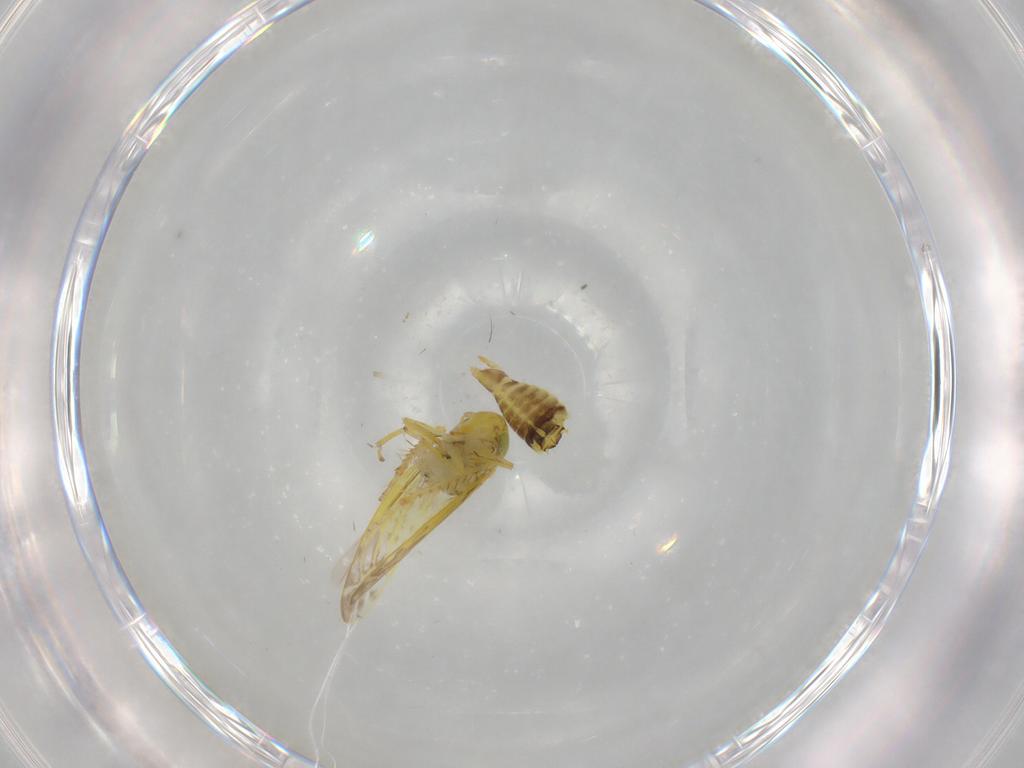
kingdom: Animalia
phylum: Arthropoda
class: Insecta
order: Hemiptera
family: Cicadellidae
